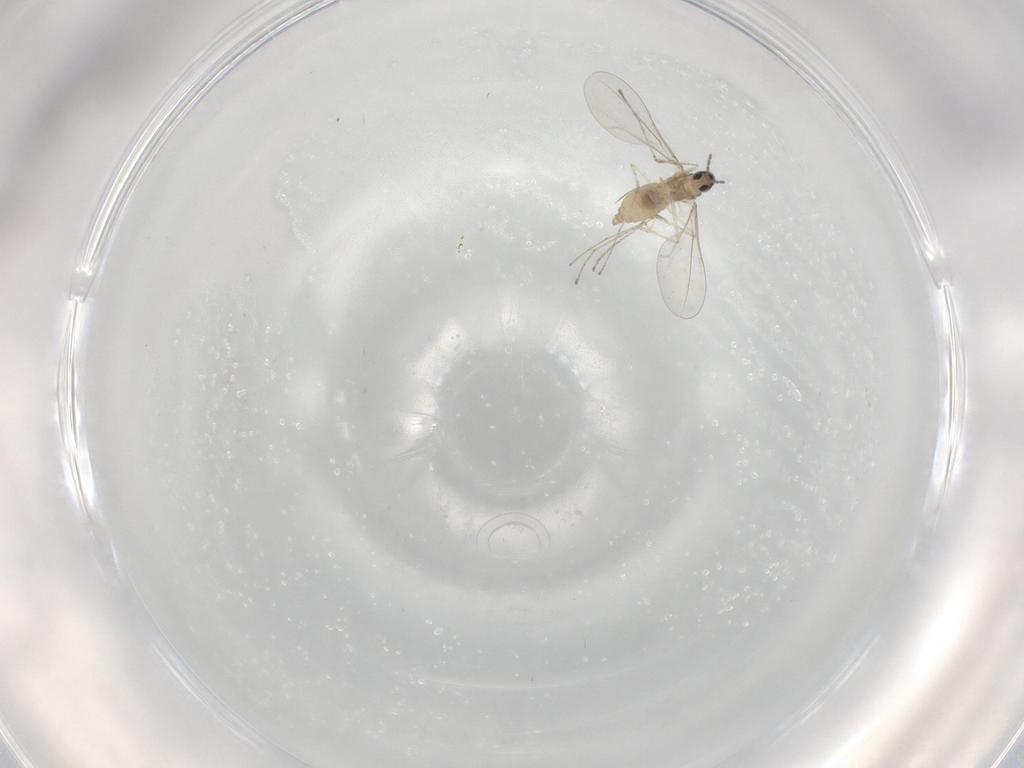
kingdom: Animalia
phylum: Arthropoda
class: Insecta
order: Diptera
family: Cecidomyiidae
